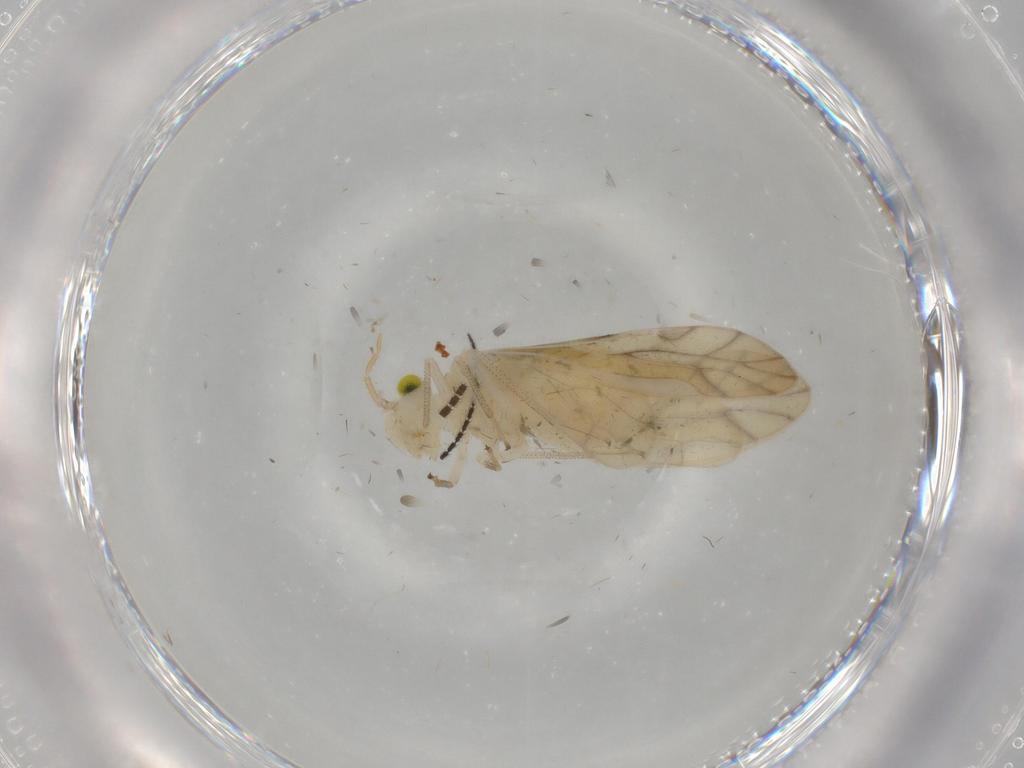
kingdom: Animalia
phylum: Arthropoda
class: Insecta
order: Psocodea
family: Caeciliusidae
